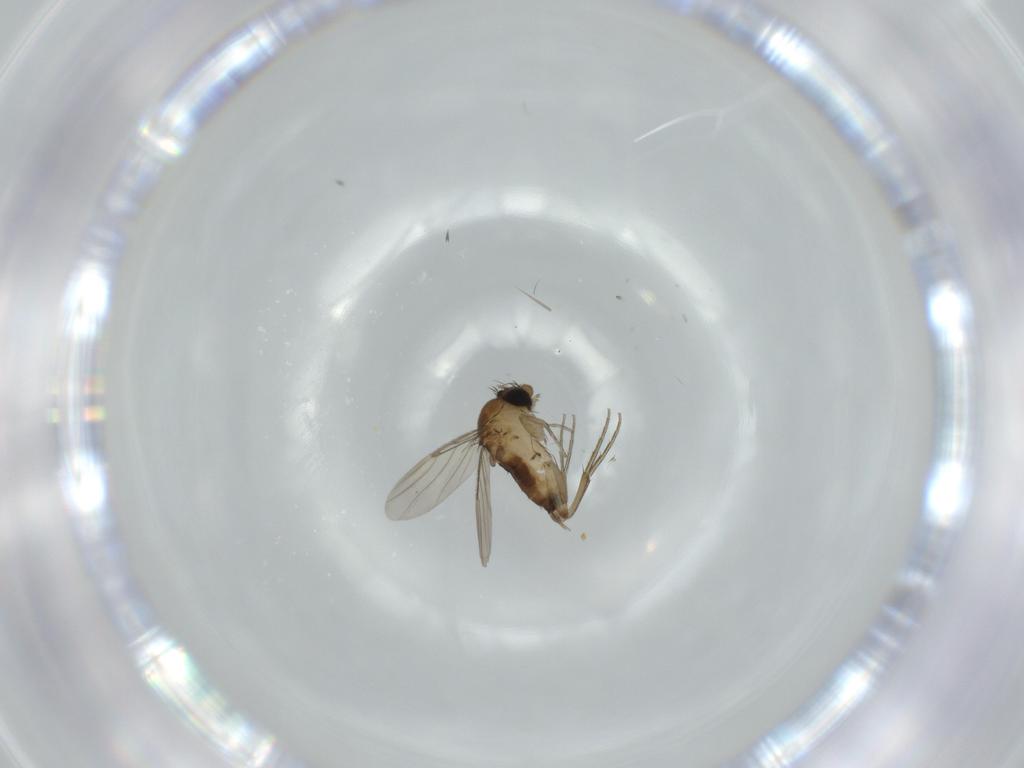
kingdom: Animalia
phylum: Arthropoda
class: Insecta
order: Diptera
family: Phoridae
